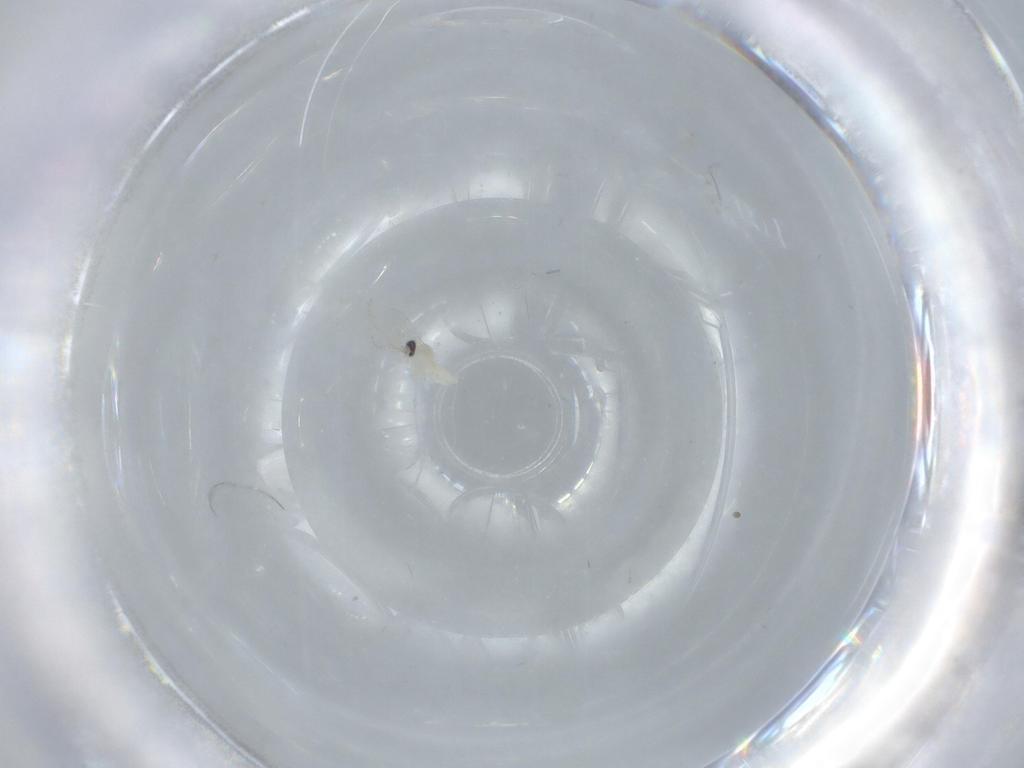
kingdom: Animalia
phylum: Arthropoda
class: Insecta
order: Diptera
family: Cecidomyiidae
